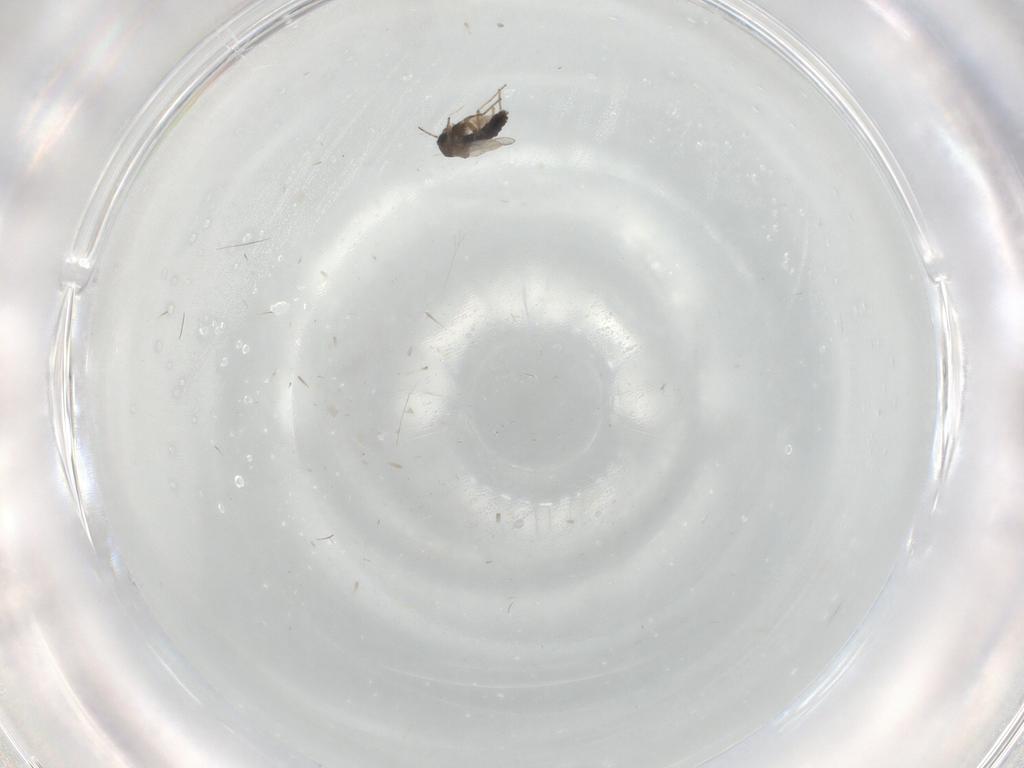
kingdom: Animalia
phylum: Arthropoda
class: Insecta
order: Diptera
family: Chironomidae
